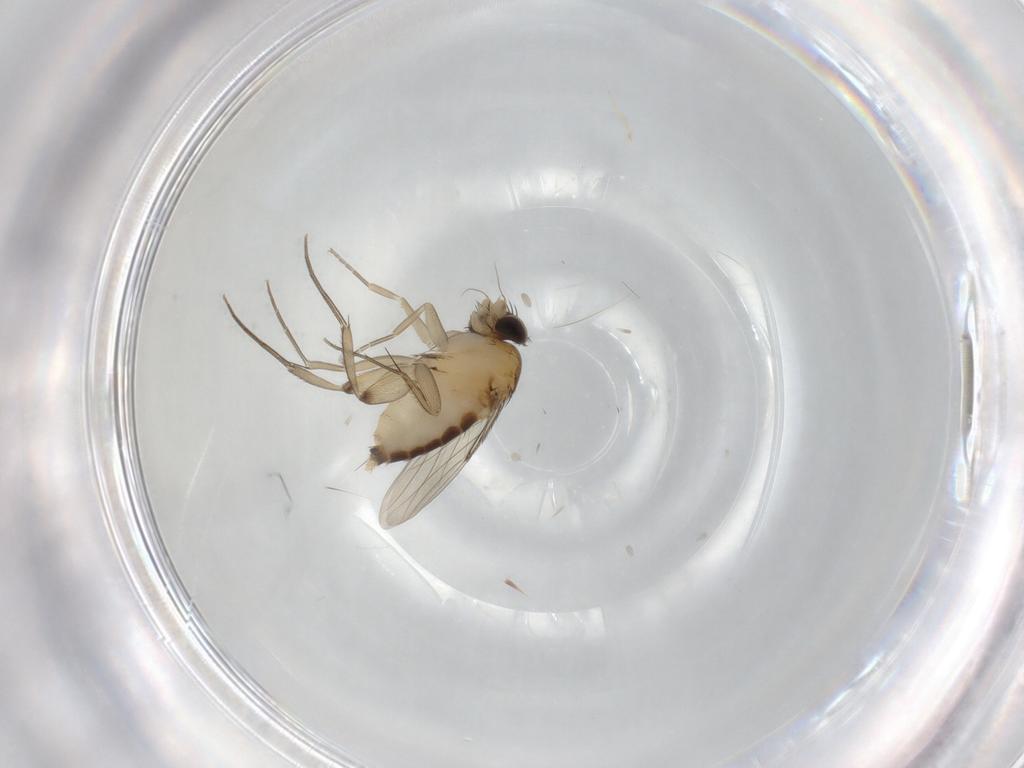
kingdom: Animalia
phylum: Arthropoda
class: Insecta
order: Diptera
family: Phoridae
